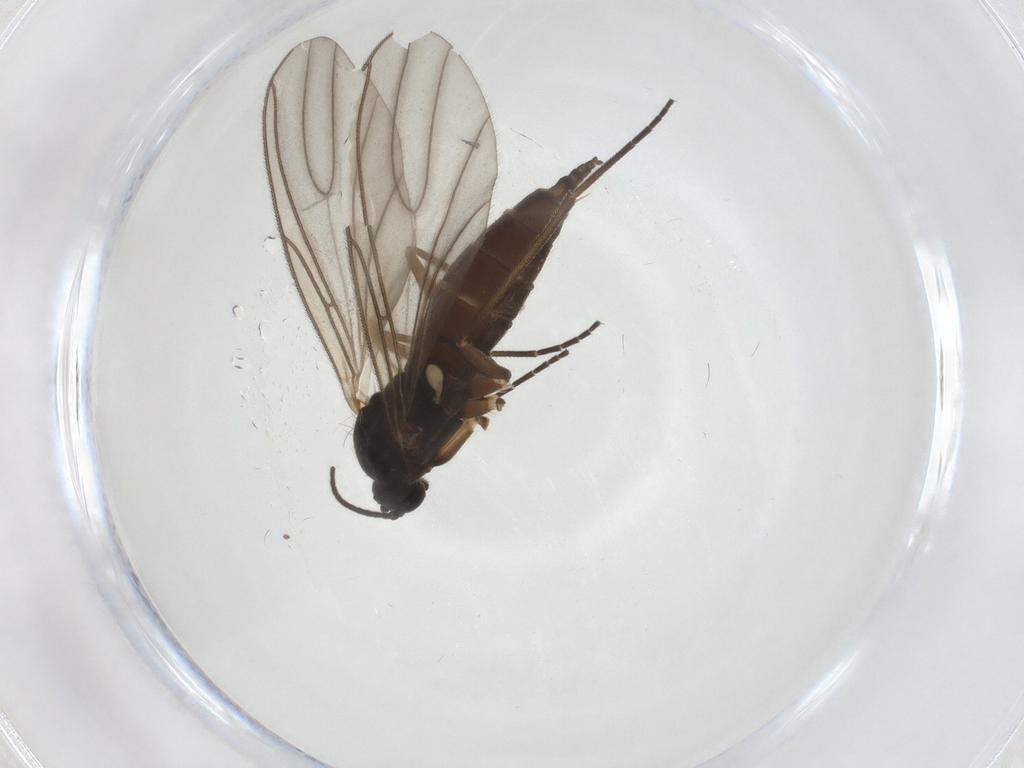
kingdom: Animalia
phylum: Arthropoda
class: Insecta
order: Diptera
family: Sciaridae
